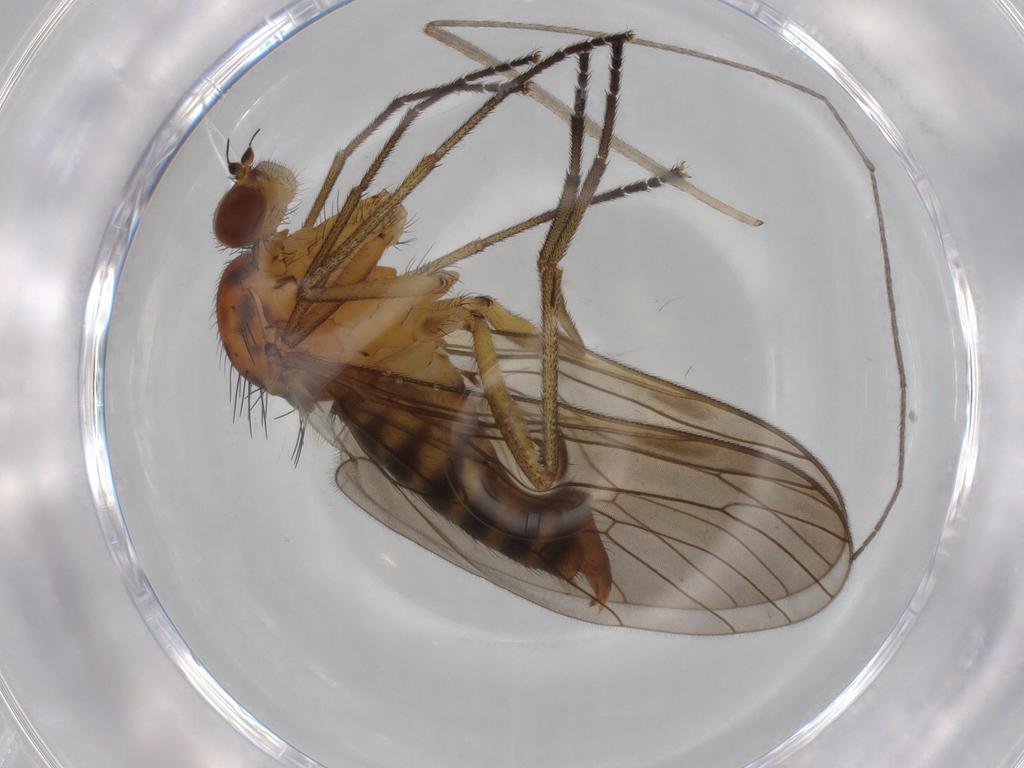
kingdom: Animalia
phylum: Arthropoda
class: Insecta
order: Diptera
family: Brachystomatidae
